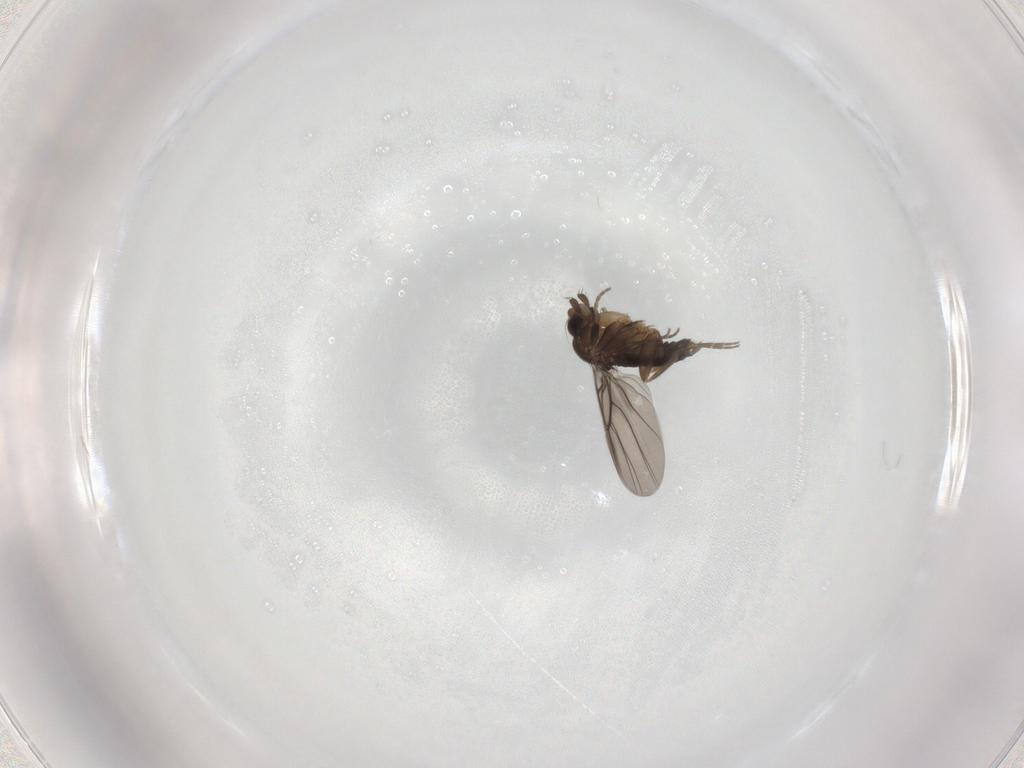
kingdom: Animalia
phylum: Arthropoda
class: Insecta
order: Diptera
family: Phoridae
